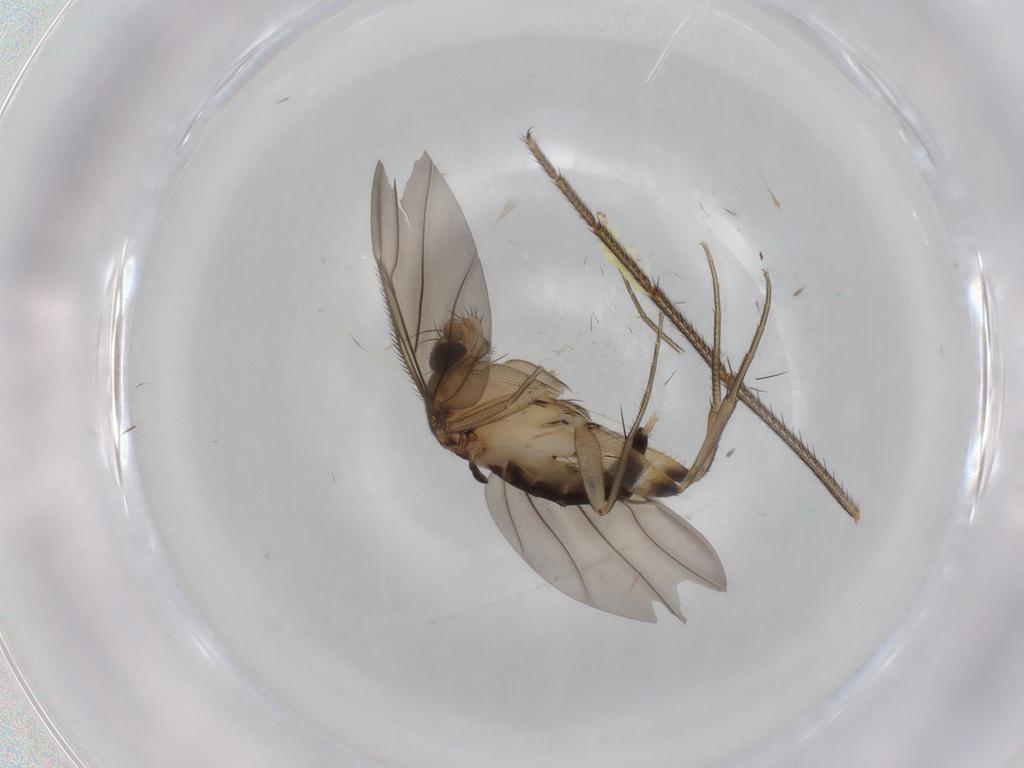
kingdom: Animalia
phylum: Arthropoda
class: Insecta
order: Diptera
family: Phoridae
